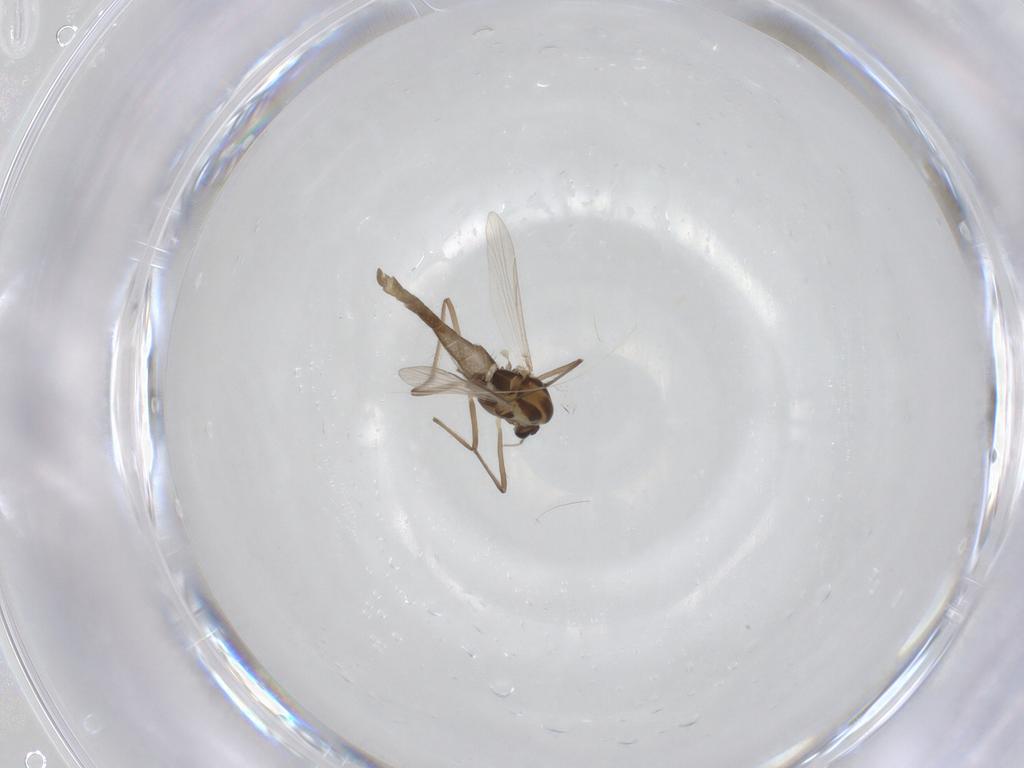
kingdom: Animalia
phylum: Arthropoda
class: Insecta
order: Diptera
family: Chironomidae
